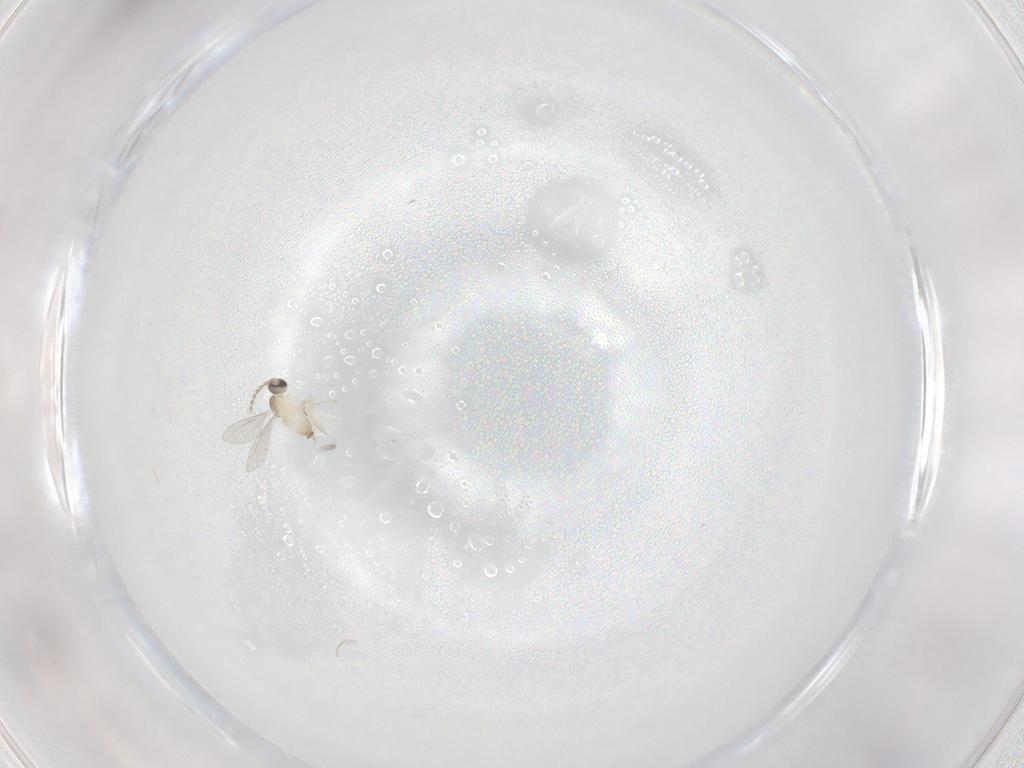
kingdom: Animalia
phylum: Arthropoda
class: Insecta
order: Diptera
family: Cecidomyiidae
